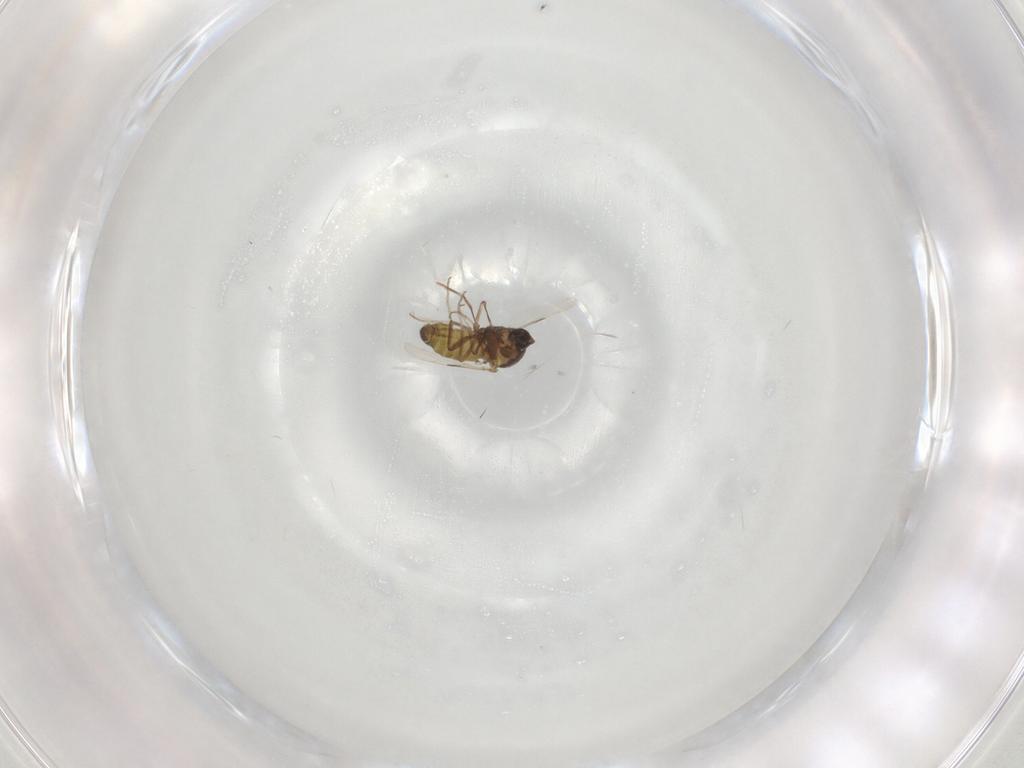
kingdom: Animalia
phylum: Arthropoda
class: Insecta
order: Diptera
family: Ceratopogonidae
